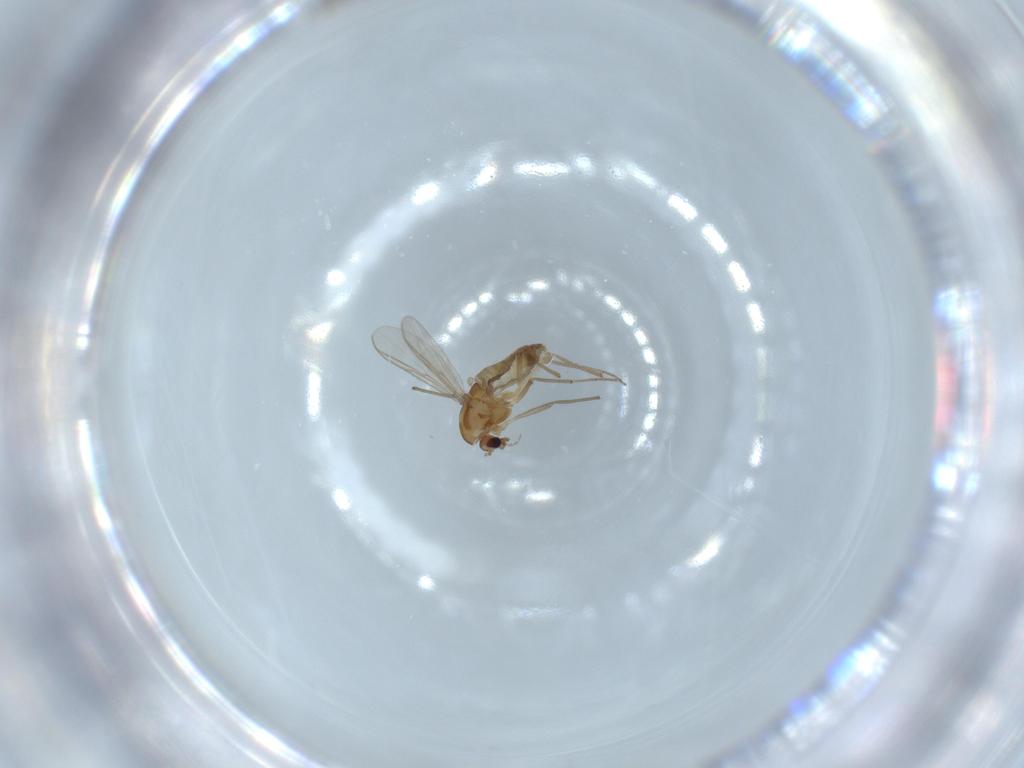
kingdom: Animalia
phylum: Arthropoda
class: Insecta
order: Diptera
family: Chironomidae
